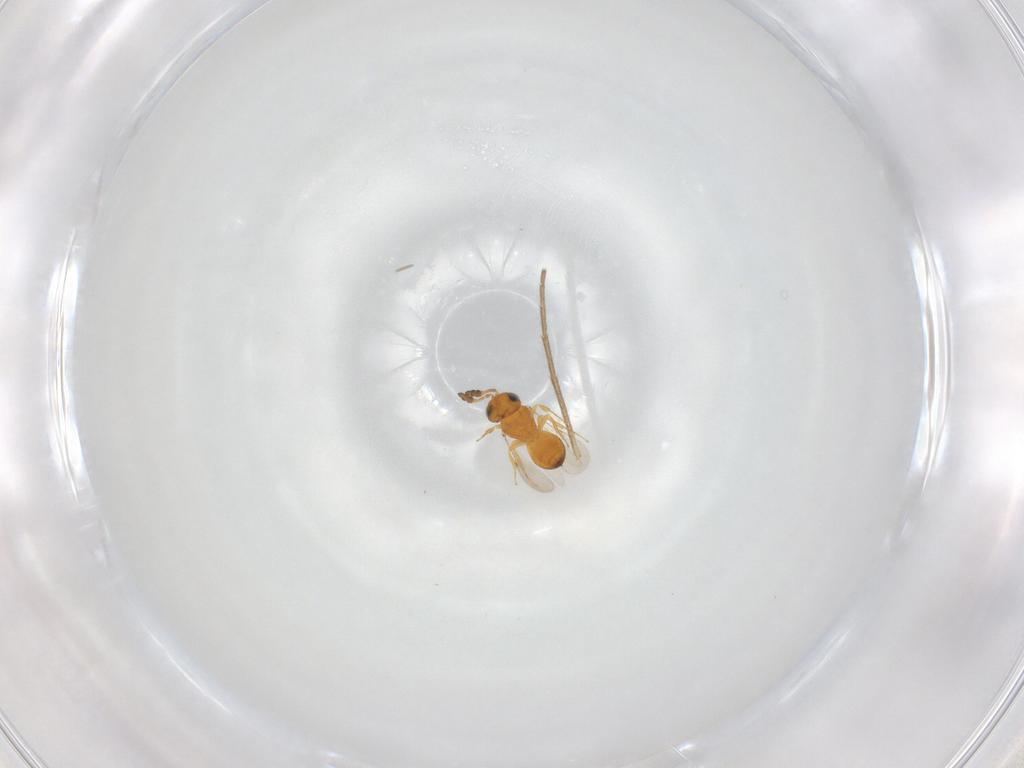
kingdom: Animalia
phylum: Arthropoda
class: Insecta
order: Hymenoptera
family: Scelionidae
